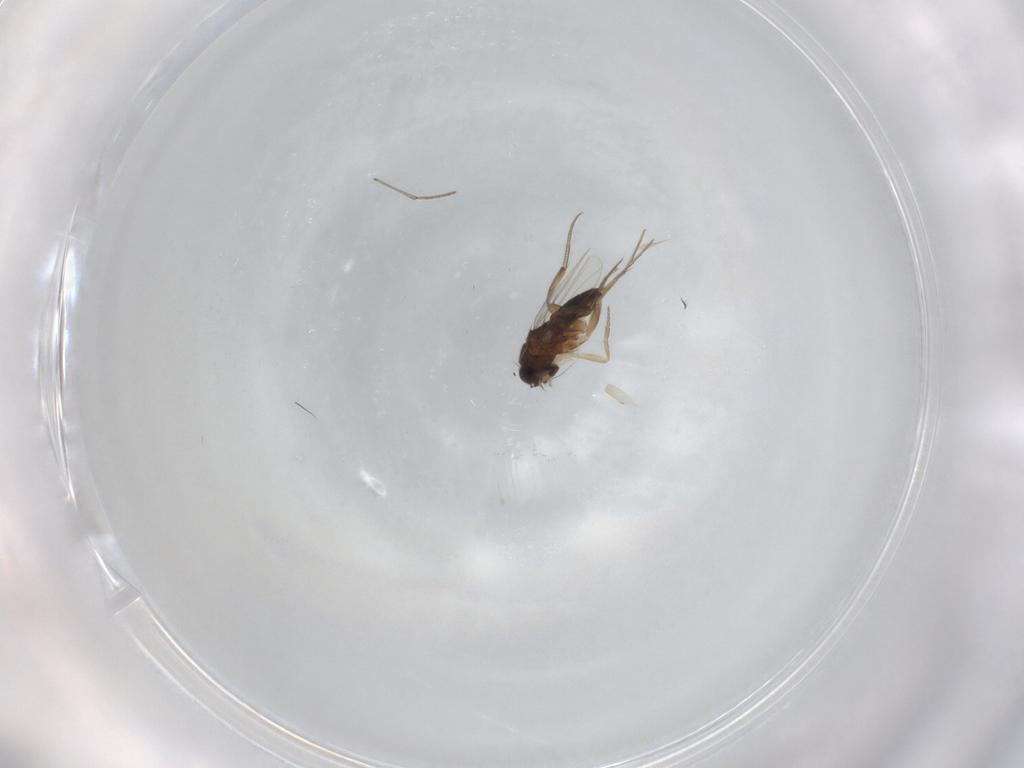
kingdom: Animalia
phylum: Arthropoda
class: Insecta
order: Diptera
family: Phoridae
